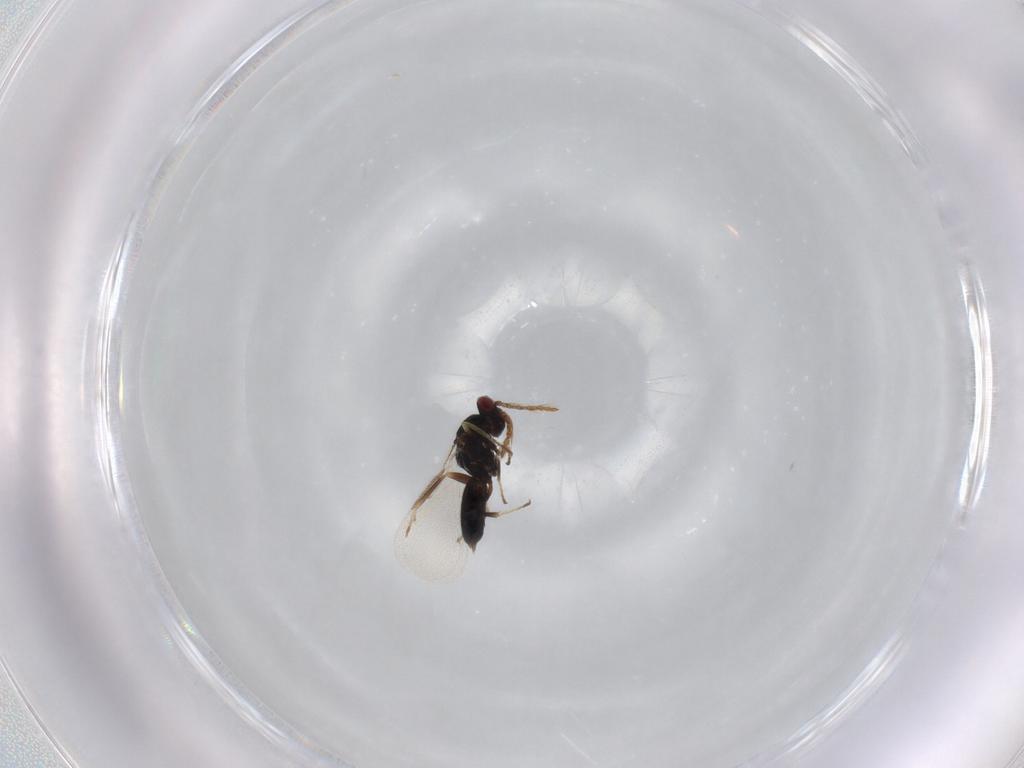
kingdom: Animalia
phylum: Arthropoda
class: Insecta
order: Hymenoptera
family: Eulophidae
